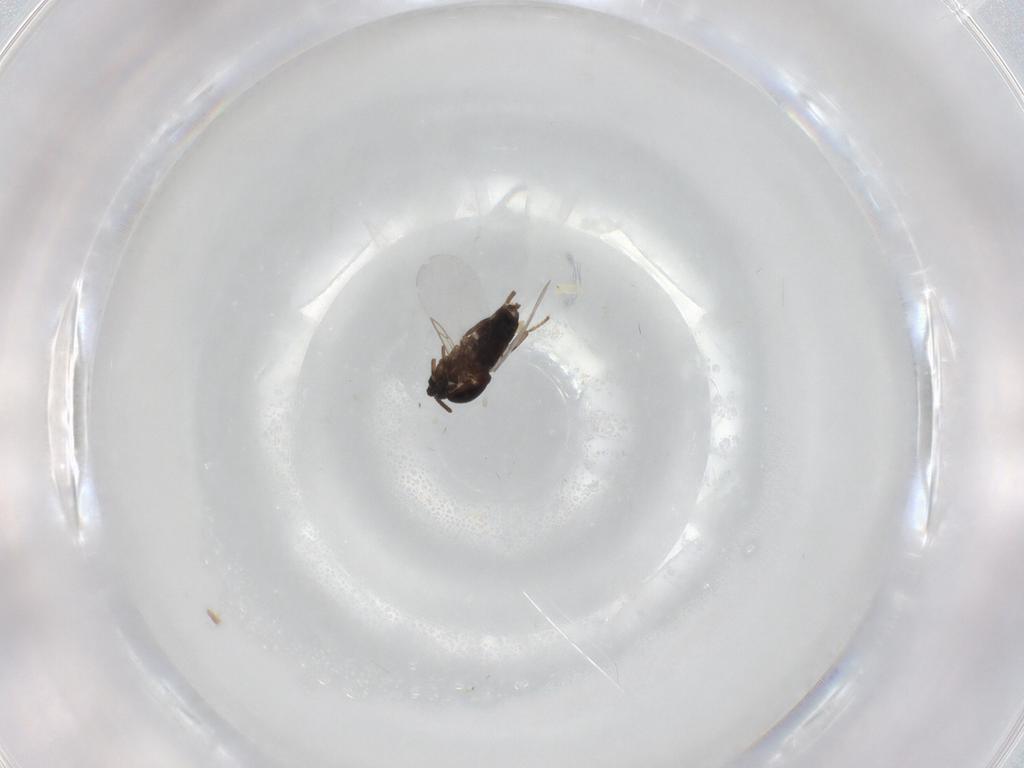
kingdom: Animalia
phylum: Arthropoda
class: Insecta
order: Diptera
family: Scatopsidae
